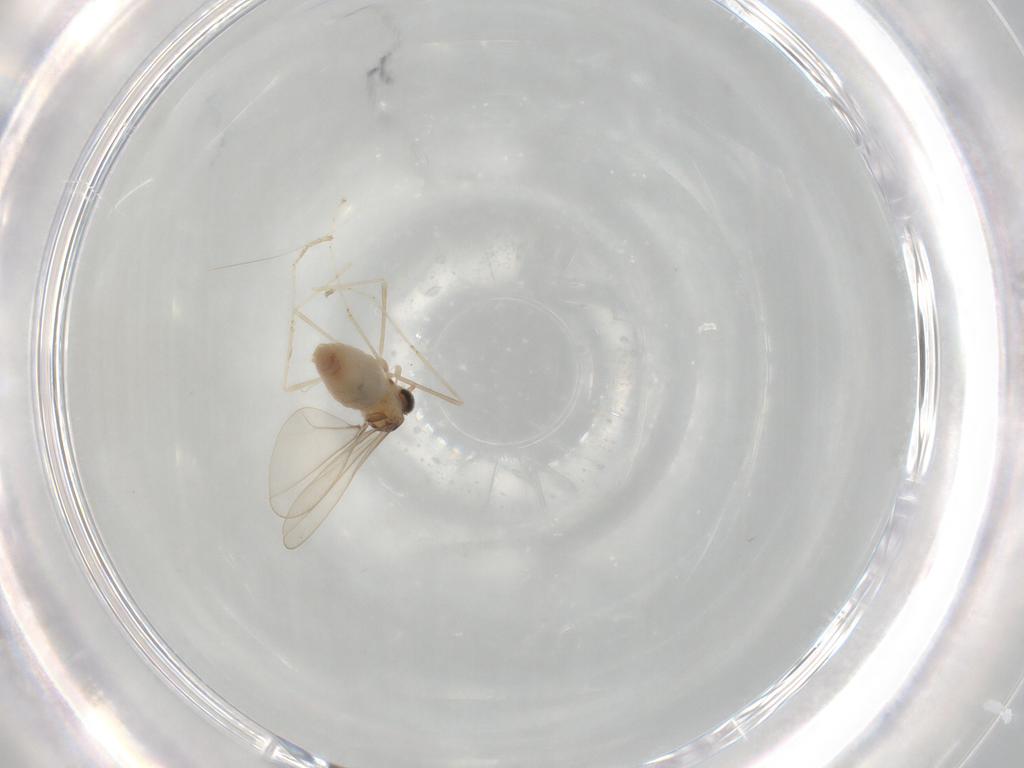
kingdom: Animalia
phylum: Arthropoda
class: Insecta
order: Diptera
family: Cecidomyiidae
